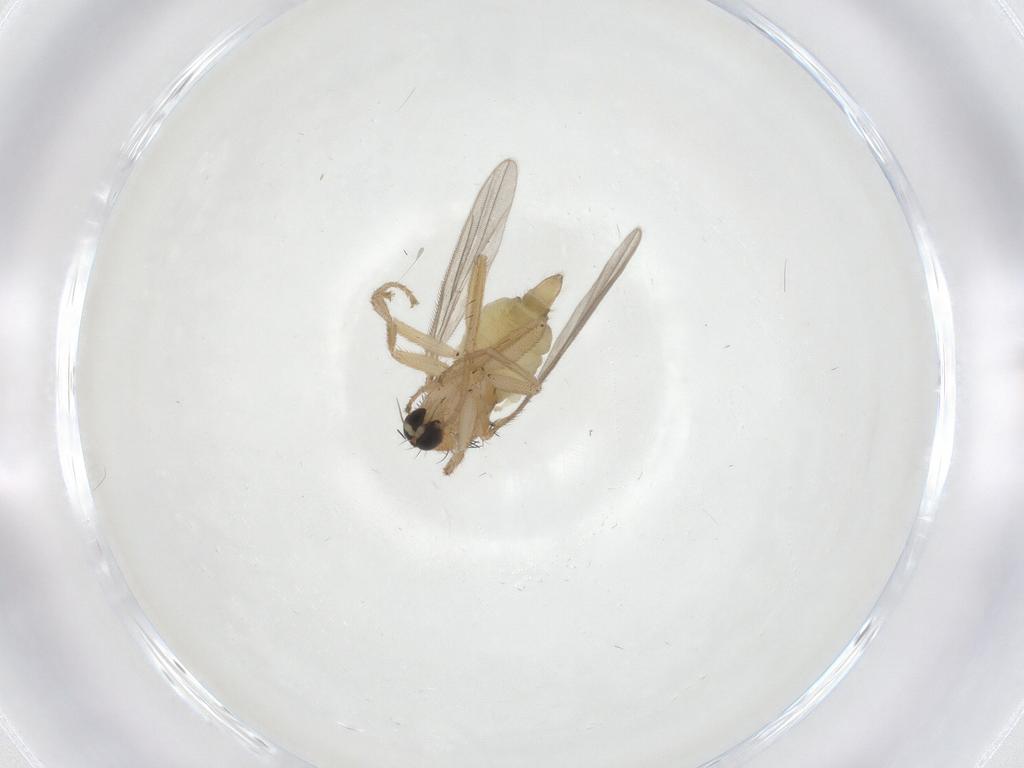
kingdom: Animalia
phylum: Arthropoda
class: Insecta
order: Diptera
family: Hybotidae
